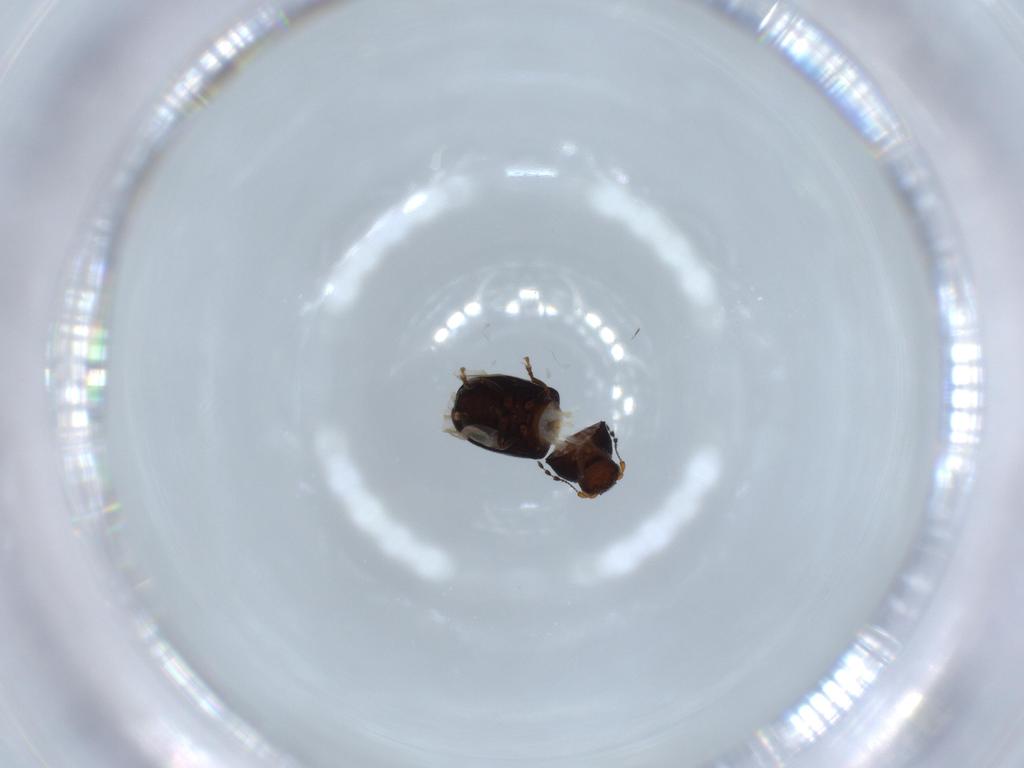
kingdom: Animalia
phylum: Arthropoda
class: Insecta
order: Coleoptera
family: Anthribidae
